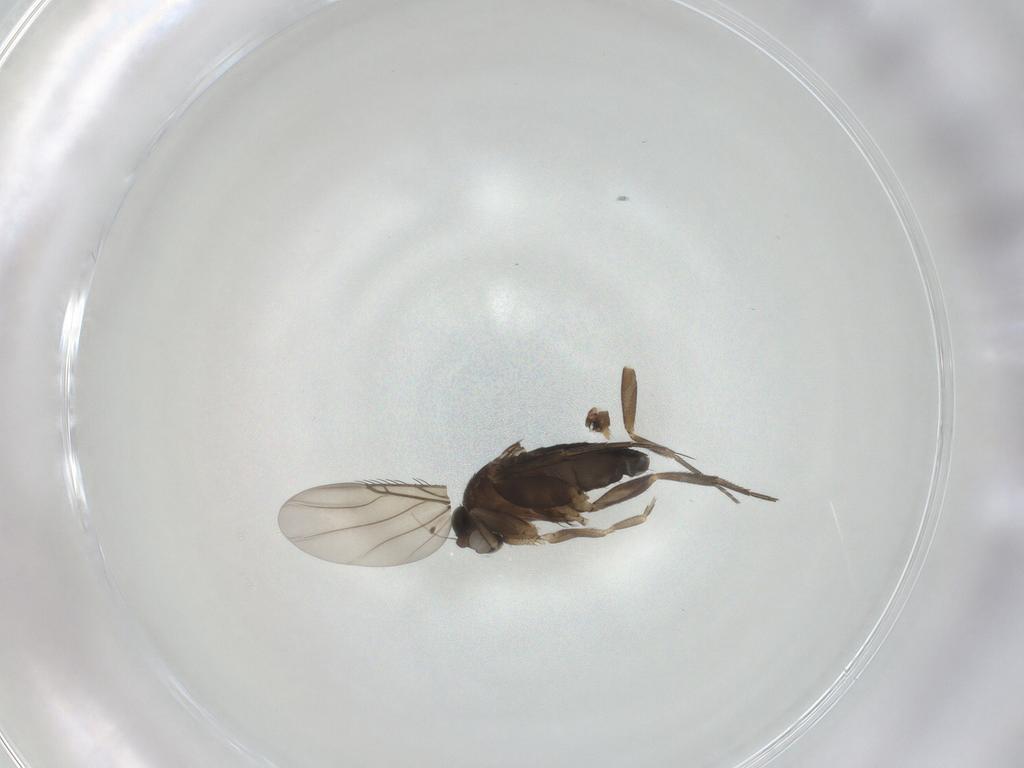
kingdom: Animalia
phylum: Arthropoda
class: Insecta
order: Diptera
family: Phoridae
